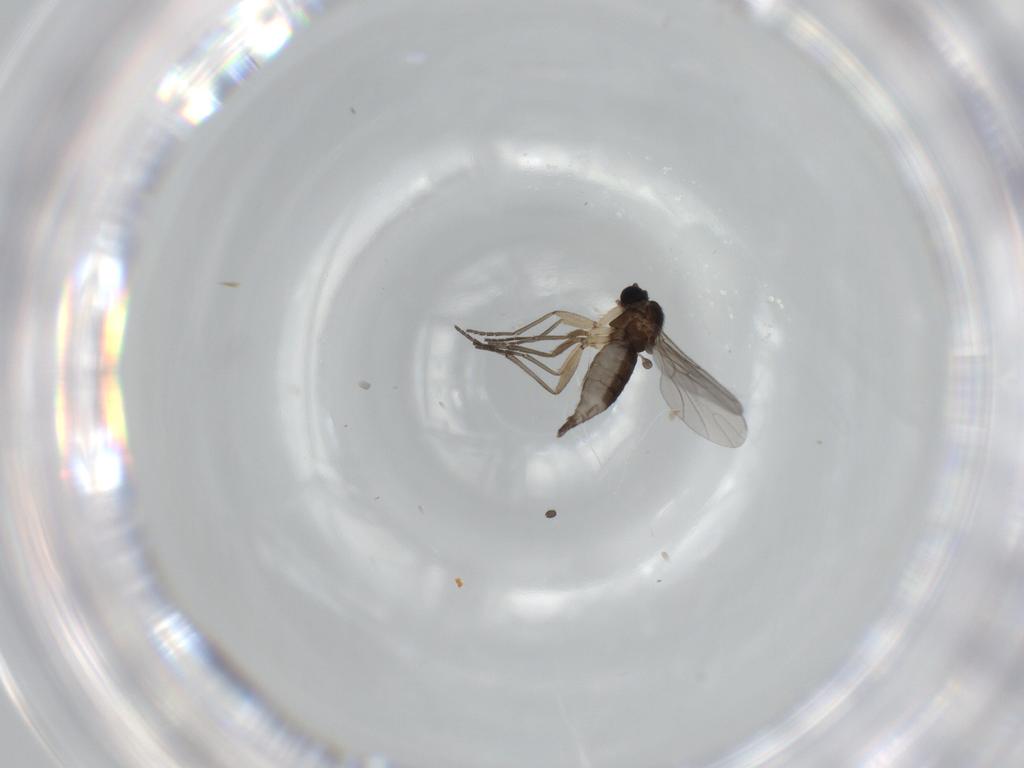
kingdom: Animalia
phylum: Arthropoda
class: Insecta
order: Diptera
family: Sciaridae
